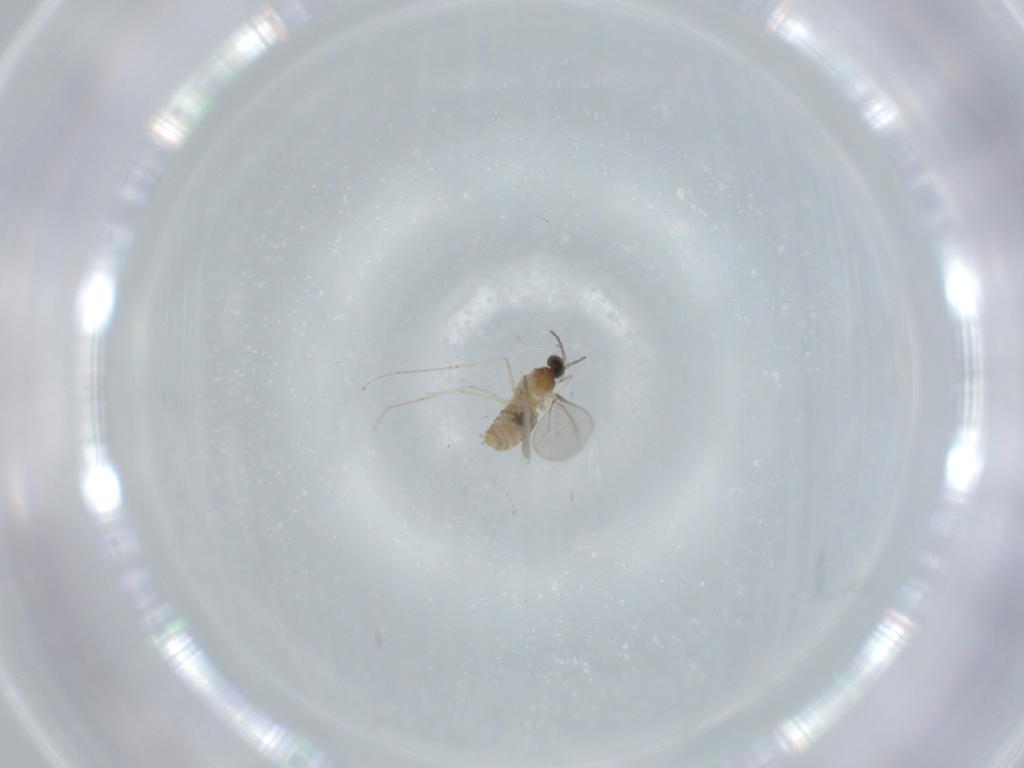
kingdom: Animalia
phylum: Arthropoda
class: Insecta
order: Diptera
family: Cecidomyiidae
